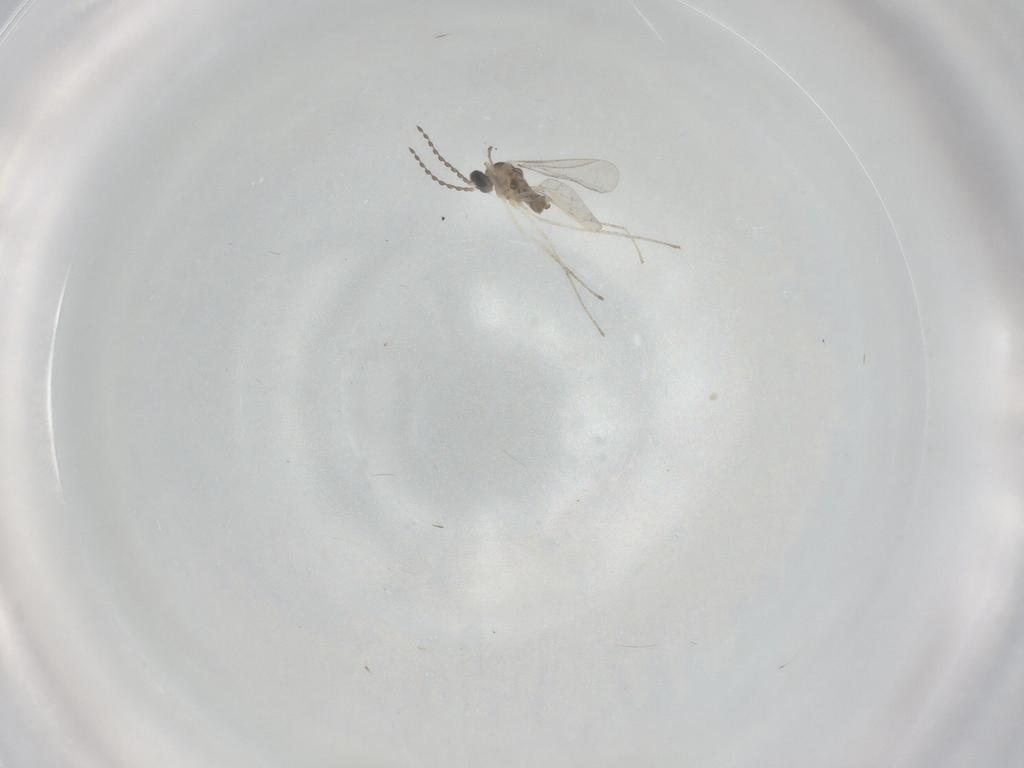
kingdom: Animalia
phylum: Arthropoda
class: Insecta
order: Diptera
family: Cecidomyiidae
